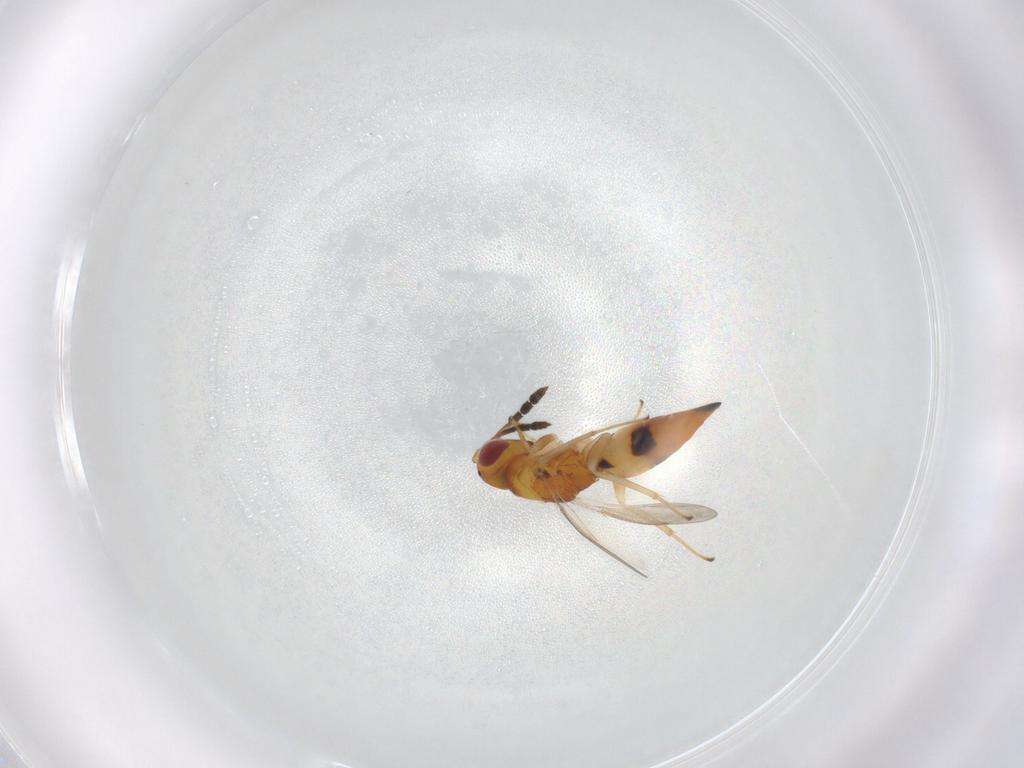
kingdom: Animalia
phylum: Arthropoda
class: Insecta
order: Hymenoptera
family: Eulophidae
